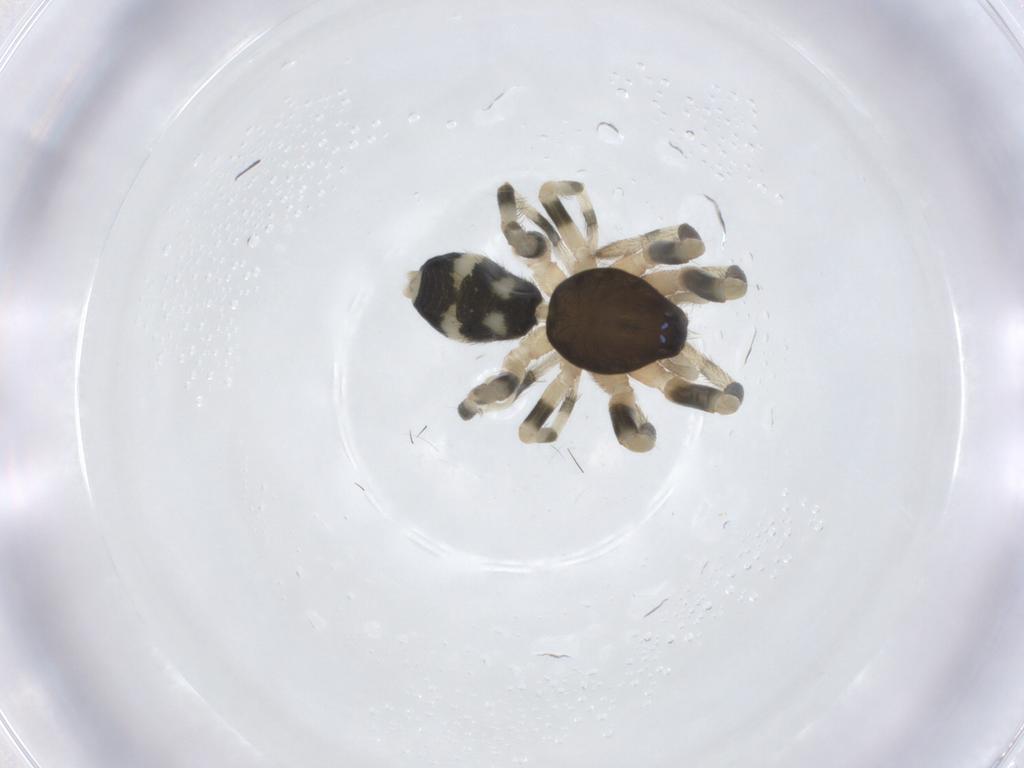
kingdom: Animalia
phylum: Arthropoda
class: Arachnida
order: Araneae
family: Lamponidae
